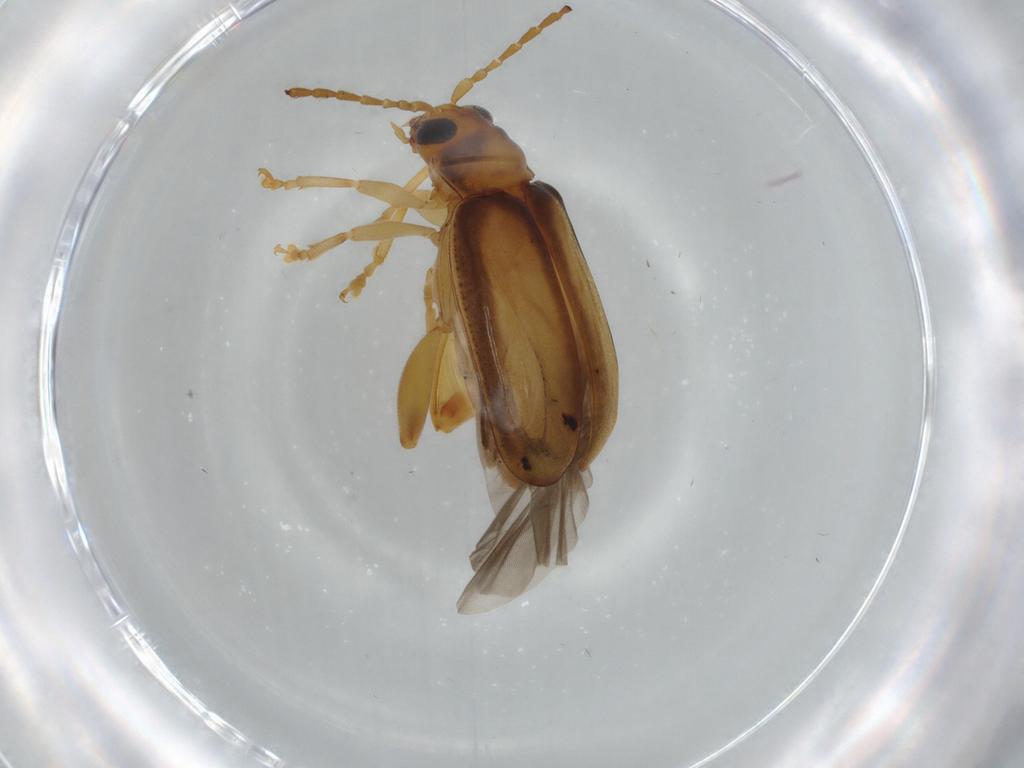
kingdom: Animalia
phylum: Arthropoda
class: Insecta
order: Coleoptera
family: Chrysomelidae
